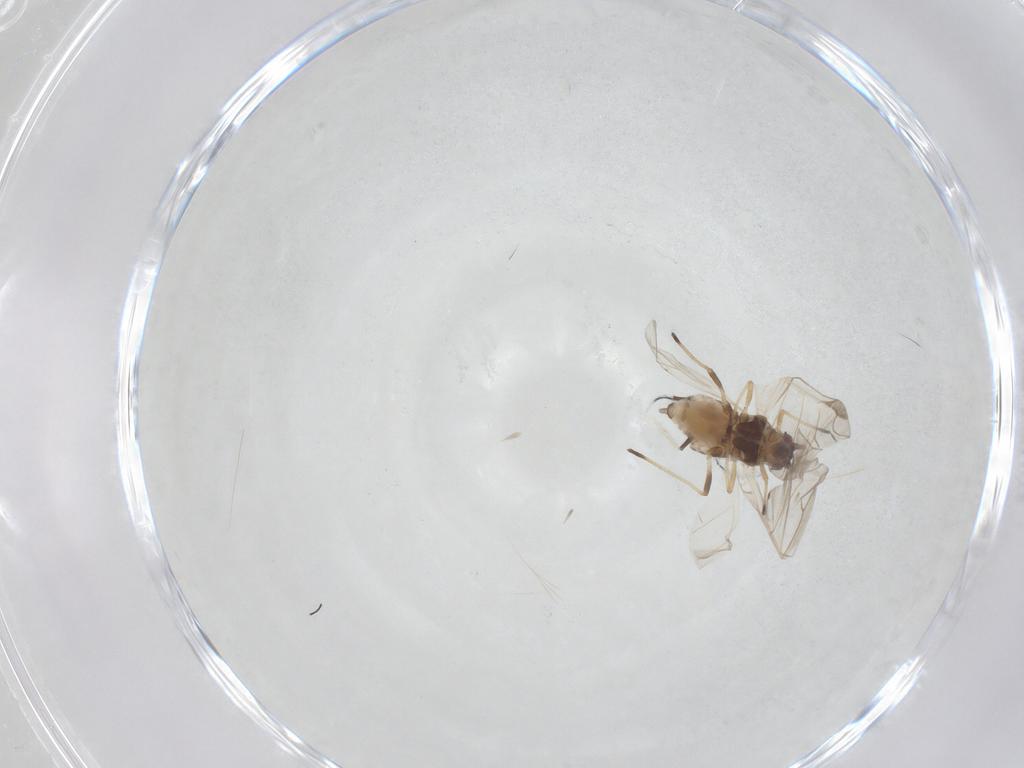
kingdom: Animalia
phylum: Arthropoda
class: Insecta
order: Hemiptera
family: Aphididae
